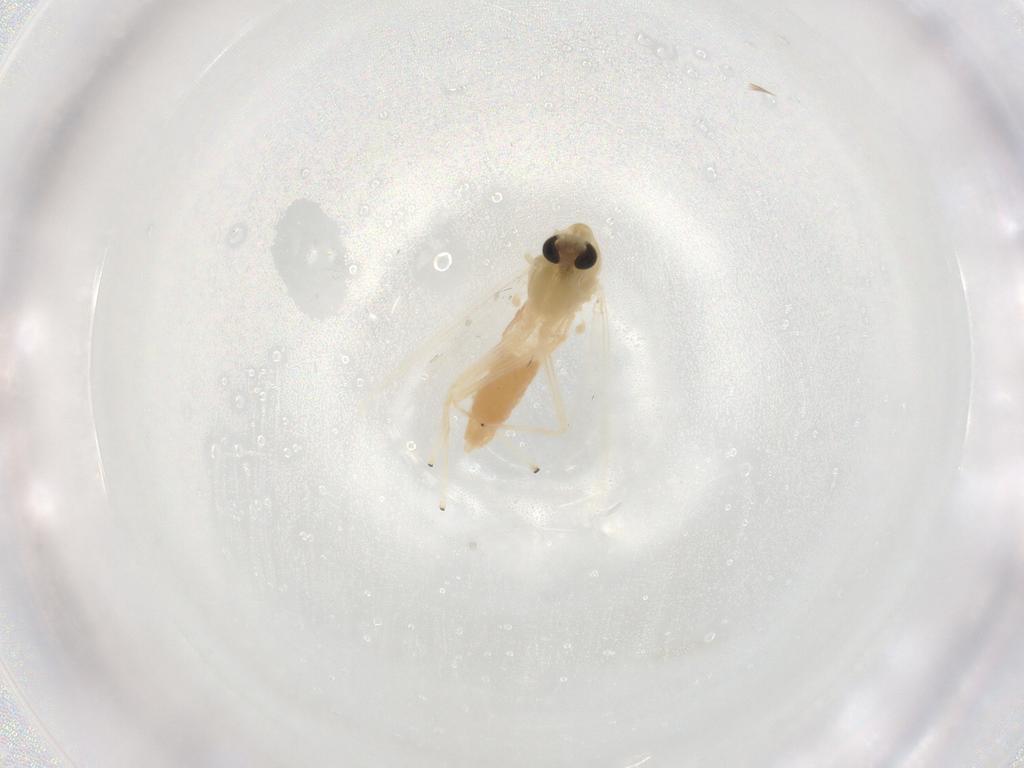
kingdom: Animalia
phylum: Arthropoda
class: Insecta
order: Diptera
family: Chironomidae
